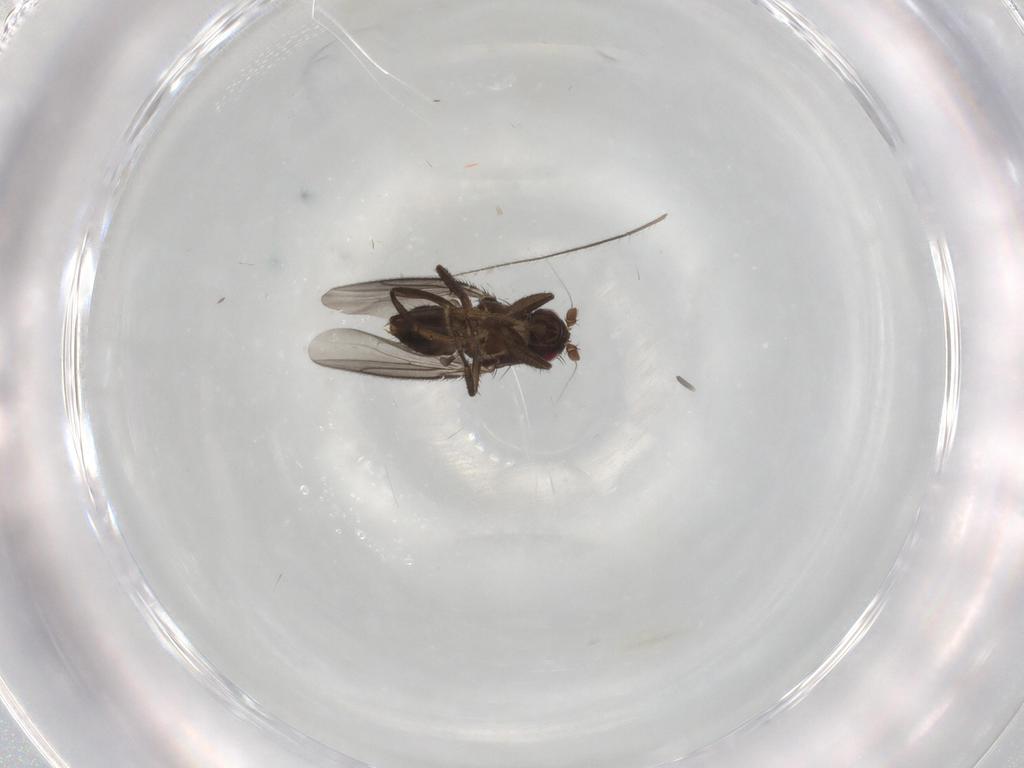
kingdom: Animalia
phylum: Arthropoda
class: Insecta
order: Diptera
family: Sphaeroceridae
